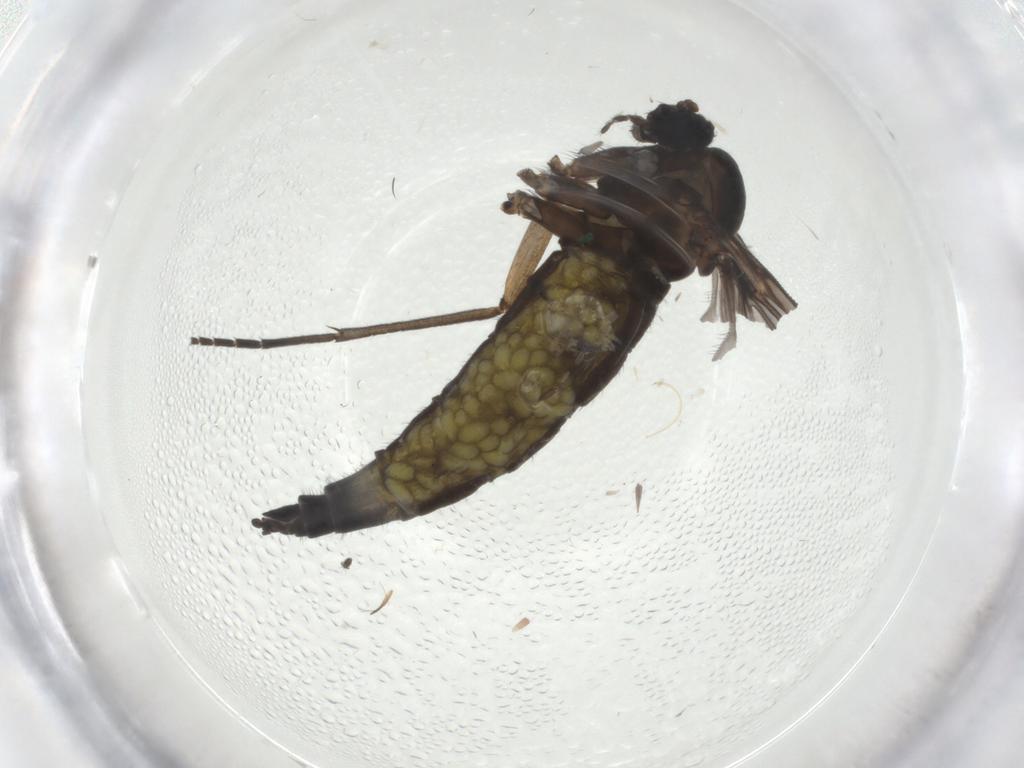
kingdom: Animalia
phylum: Arthropoda
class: Insecta
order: Diptera
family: Sciaridae
